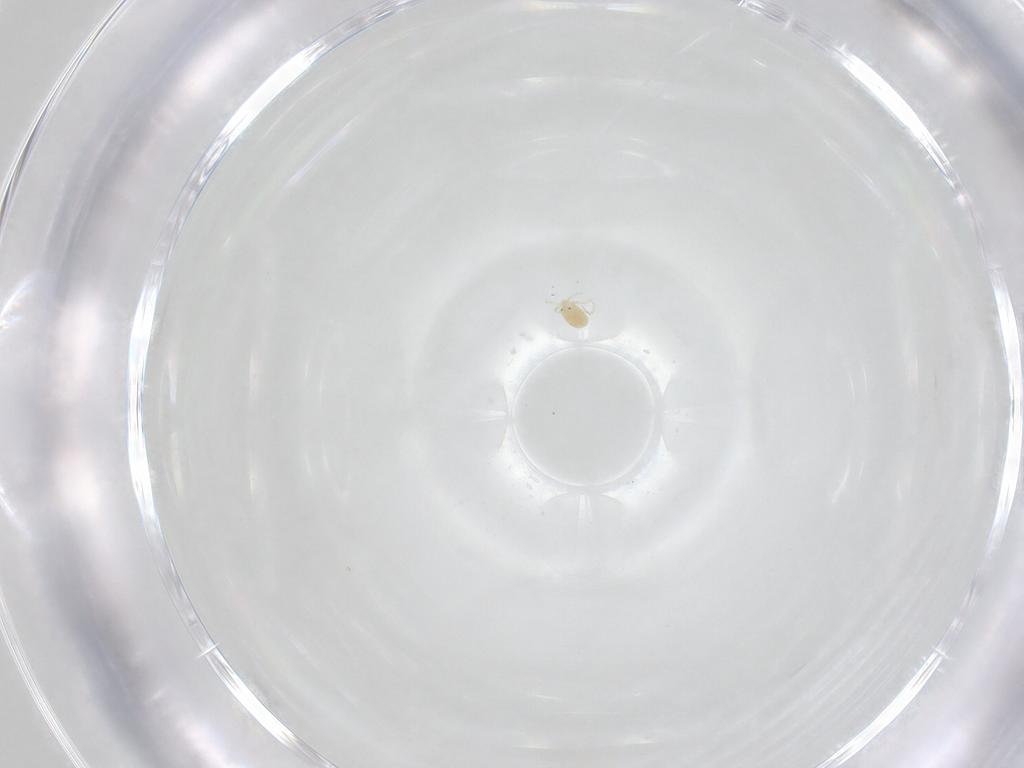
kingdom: Animalia
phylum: Arthropoda
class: Arachnida
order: Trombidiformes
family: Torrenticolidae
